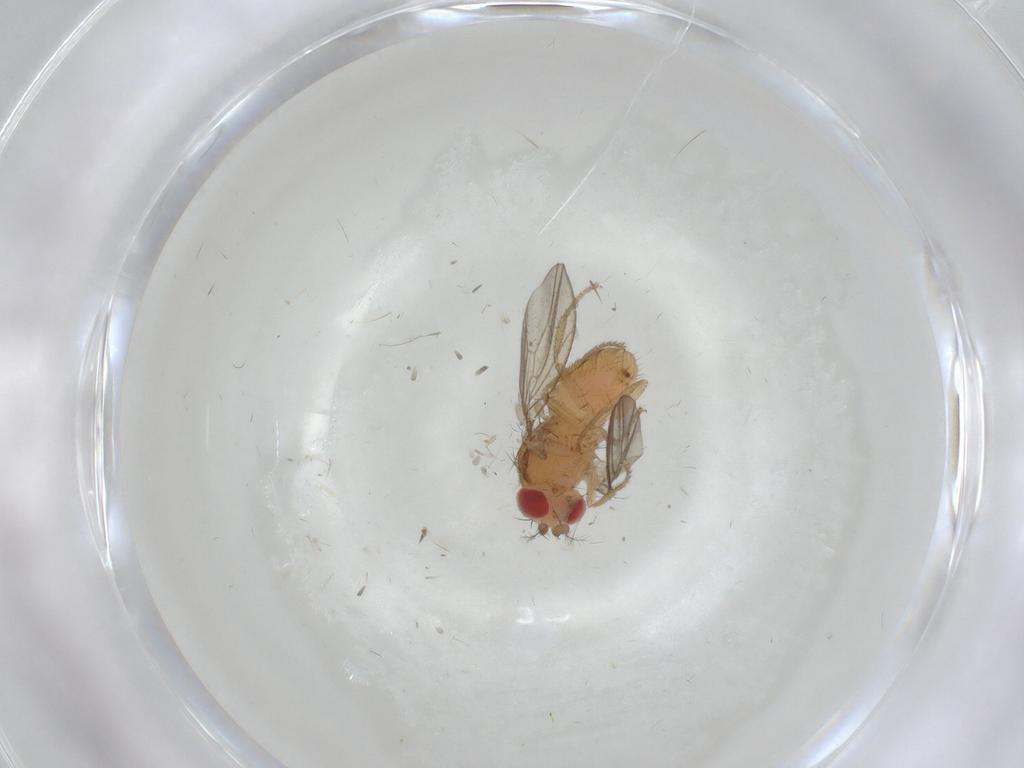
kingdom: Animalia
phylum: Arthropoda
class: Insecta
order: Diptera
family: Drosophilidae
